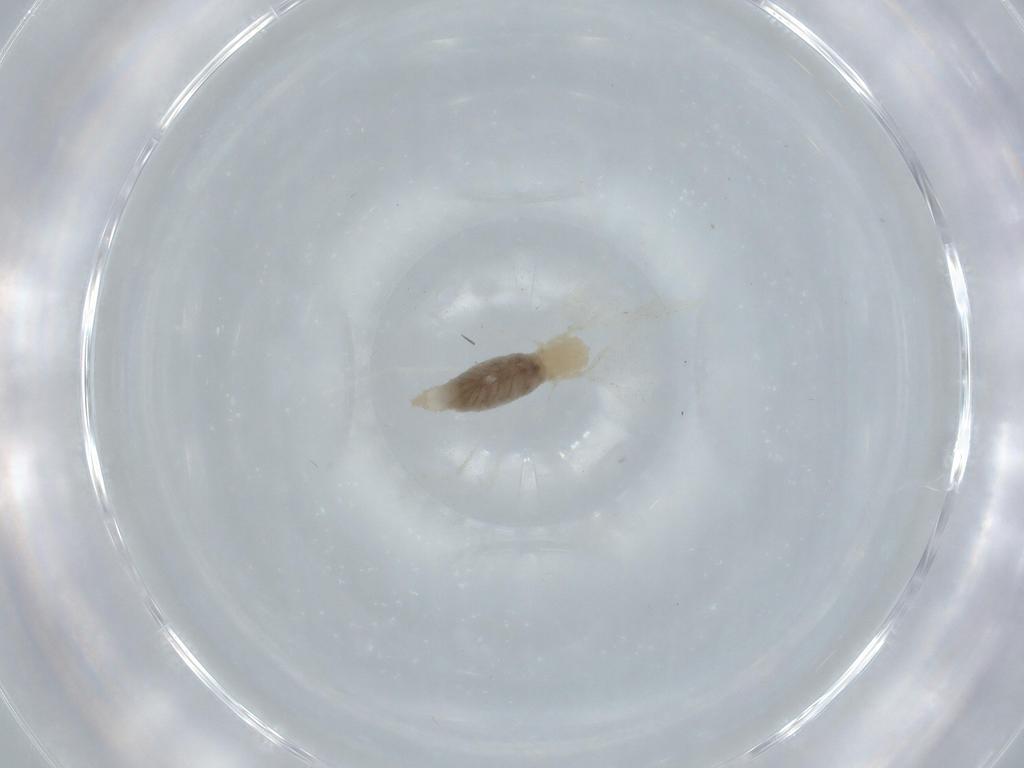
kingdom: Animalia
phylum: Arthropoda
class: Insecta
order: Diptera
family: Cecidomyiidae
